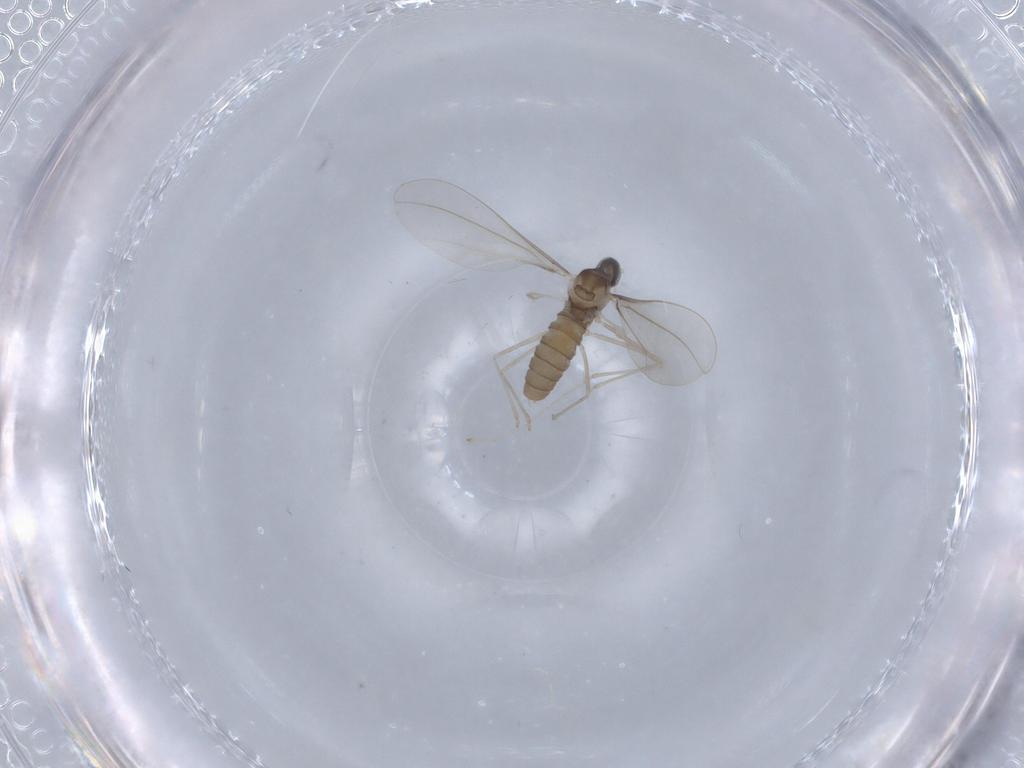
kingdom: Animalia
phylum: Arthropoda
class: Insecta
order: Diptera
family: Cecidomyiidae
